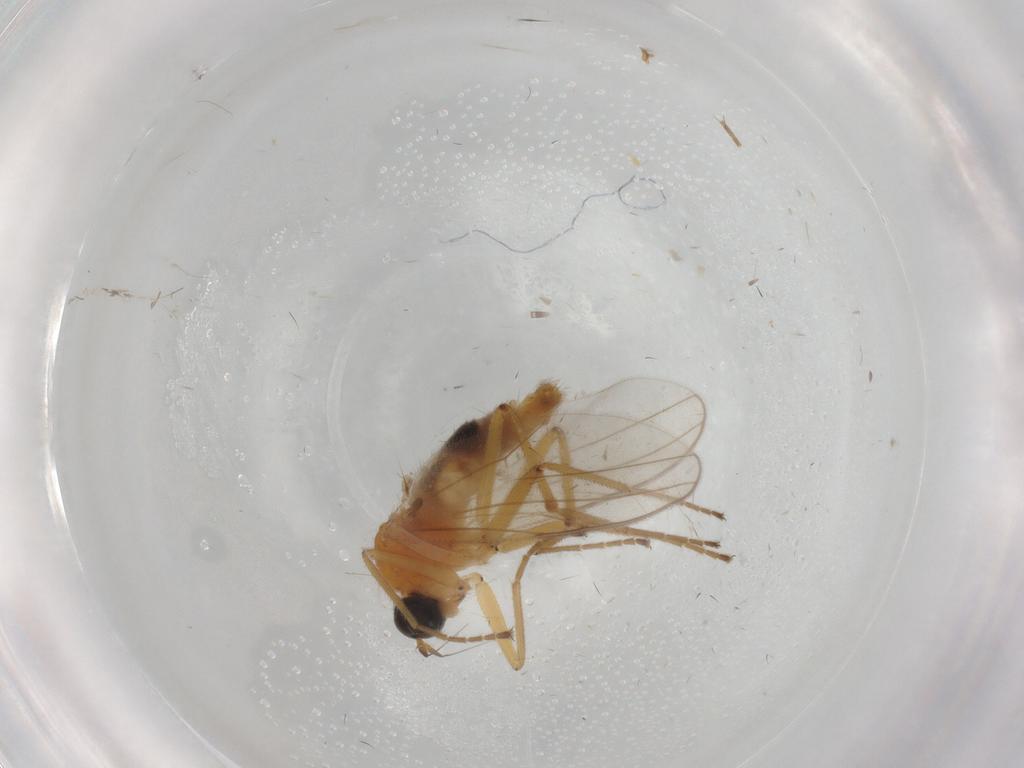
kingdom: Animalia
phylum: Arthropoda
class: Insecta
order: Diptera
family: Hybotidae
